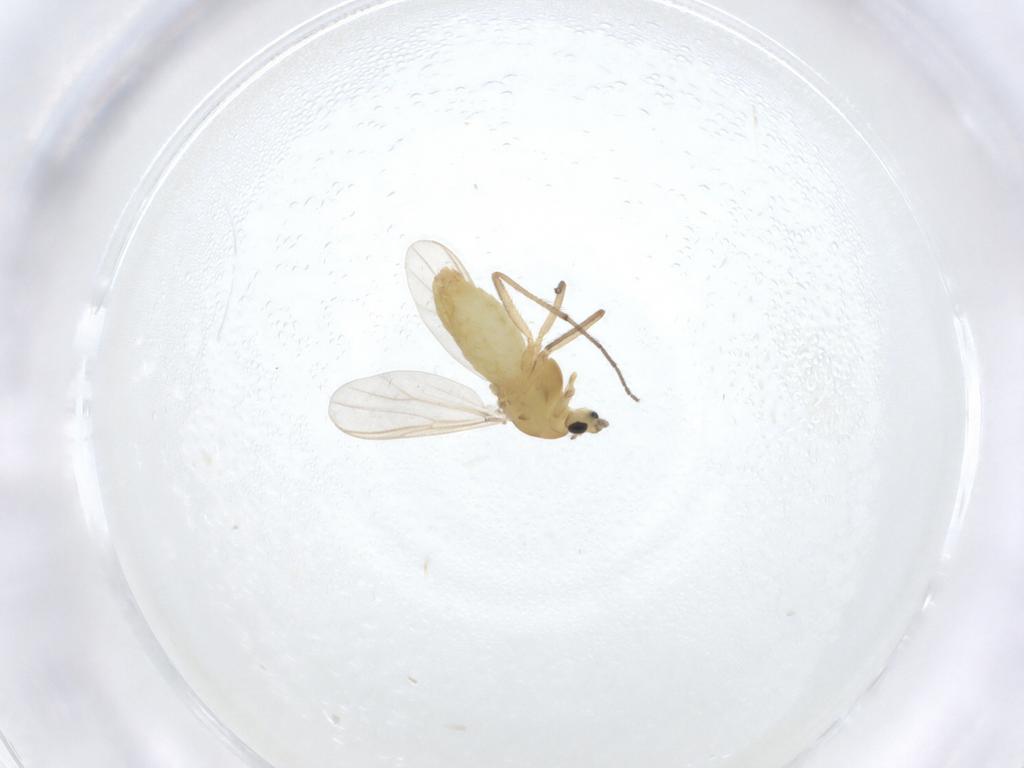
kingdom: Animalia
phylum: Arthropoda
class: Insecta
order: Diptera
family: Chironomidae
